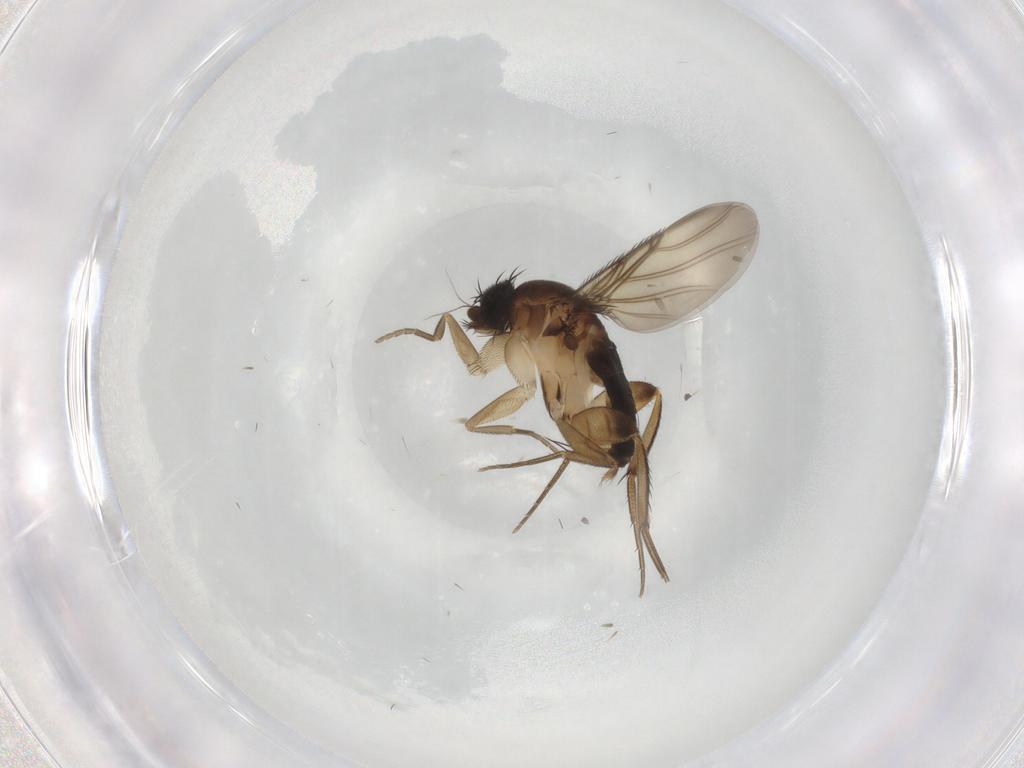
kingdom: Animalia
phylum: Arthropoda
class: Insecta
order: Diptera
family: Phoridae
